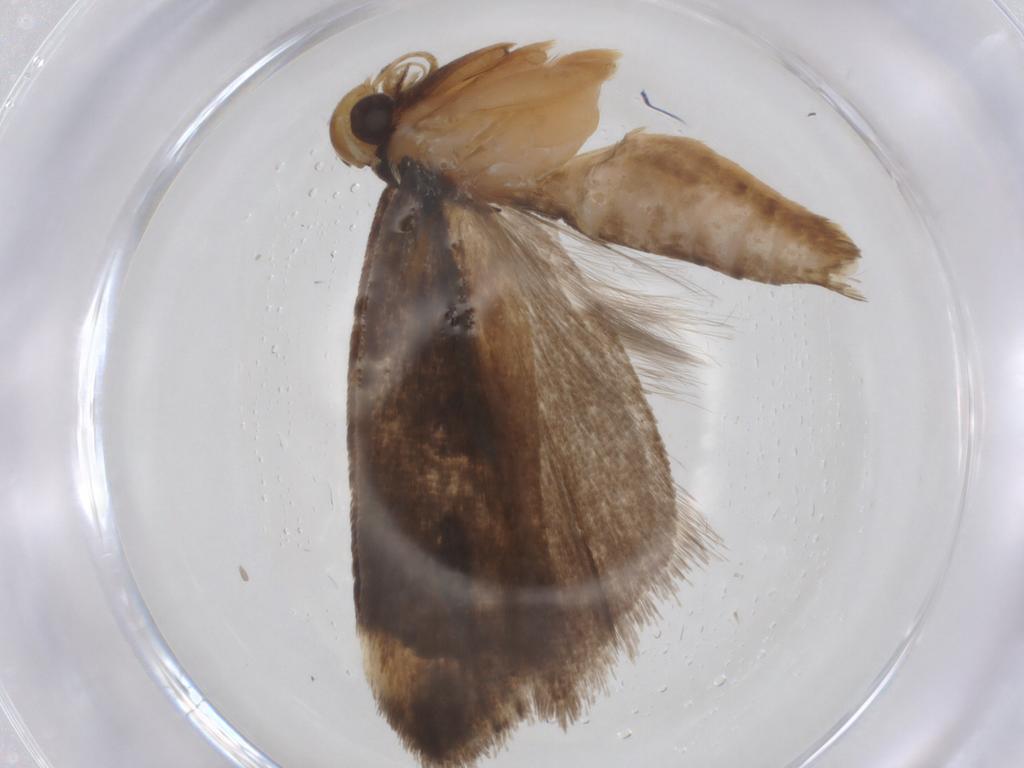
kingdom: Animalia
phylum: Arthropoda
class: Insecta
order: Lepidoptera
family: Gelechiidae
